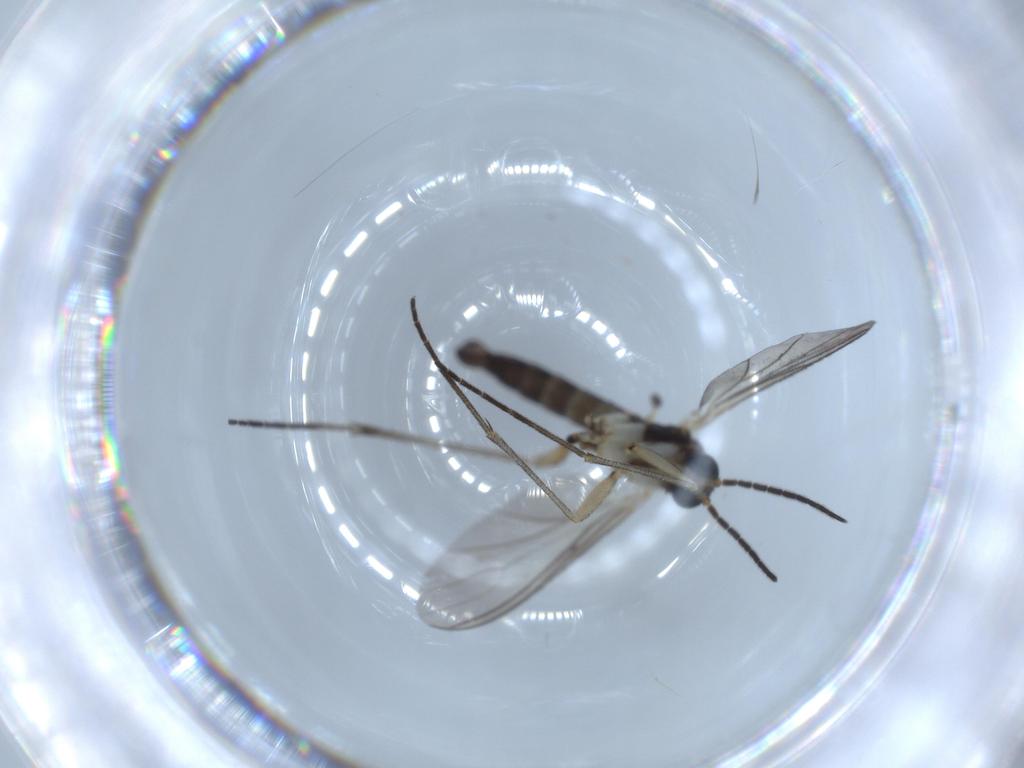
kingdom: Animalia
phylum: Arthropoda
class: Insecta
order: Diptera
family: Sciaridae
